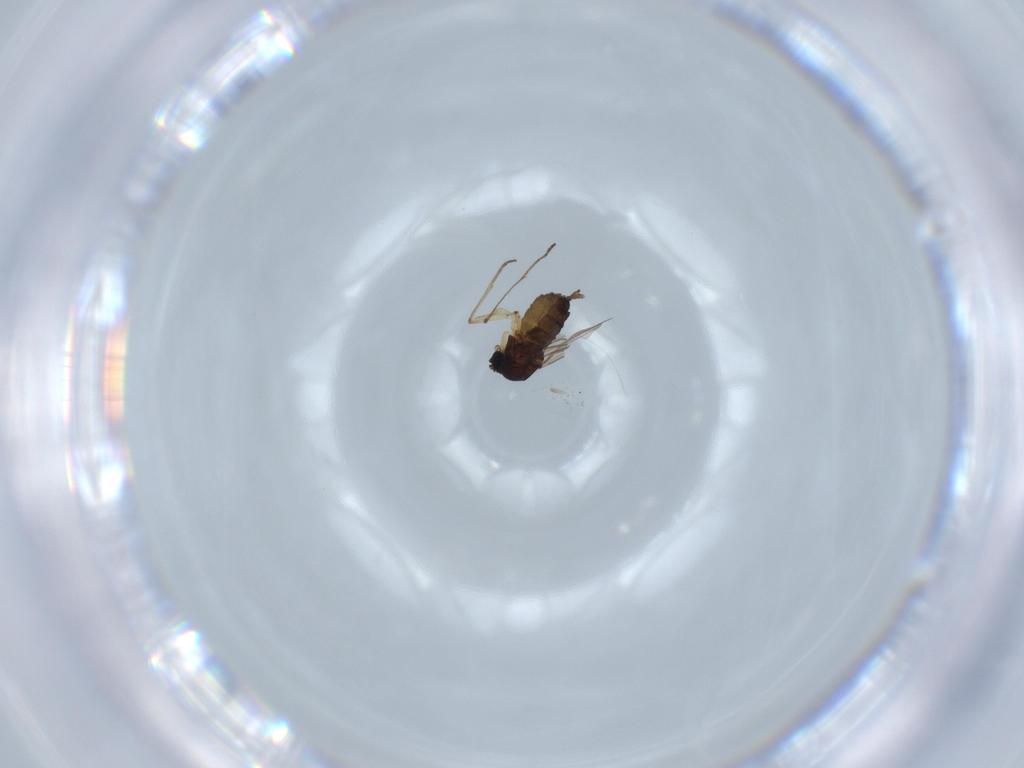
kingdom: Animalia
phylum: Arthropoda
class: Insecta
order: Diptera
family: Sciaridae
